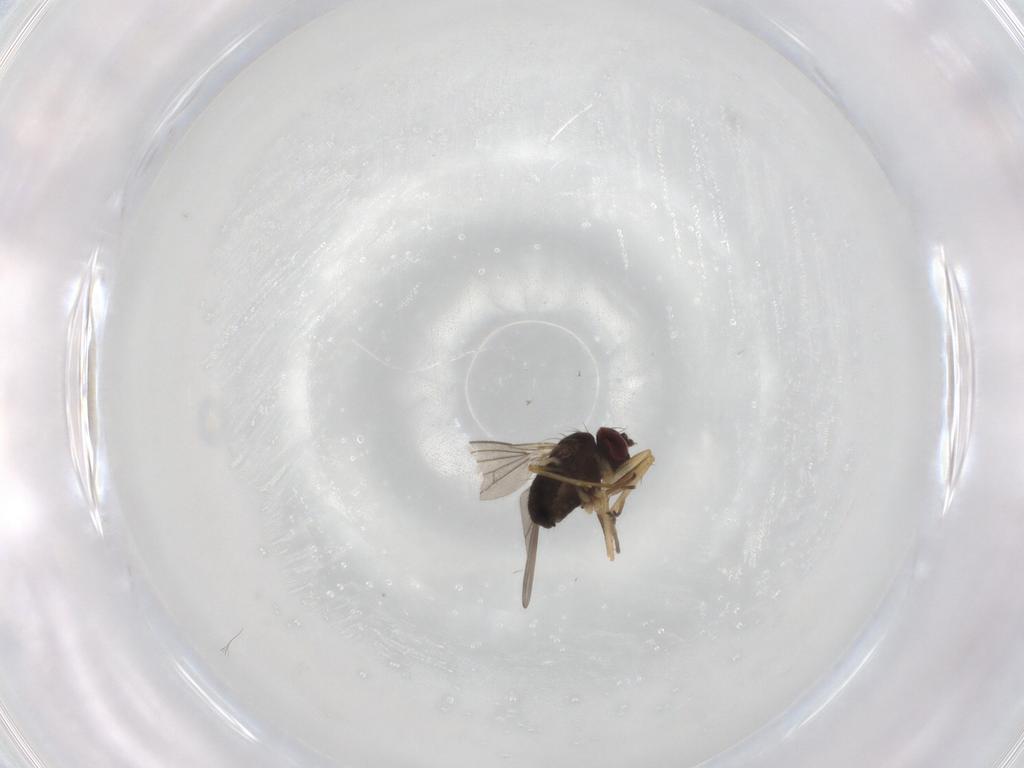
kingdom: Animalia
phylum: Arthropoda
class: Insecta
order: Diptera
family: Dolichopodidae
